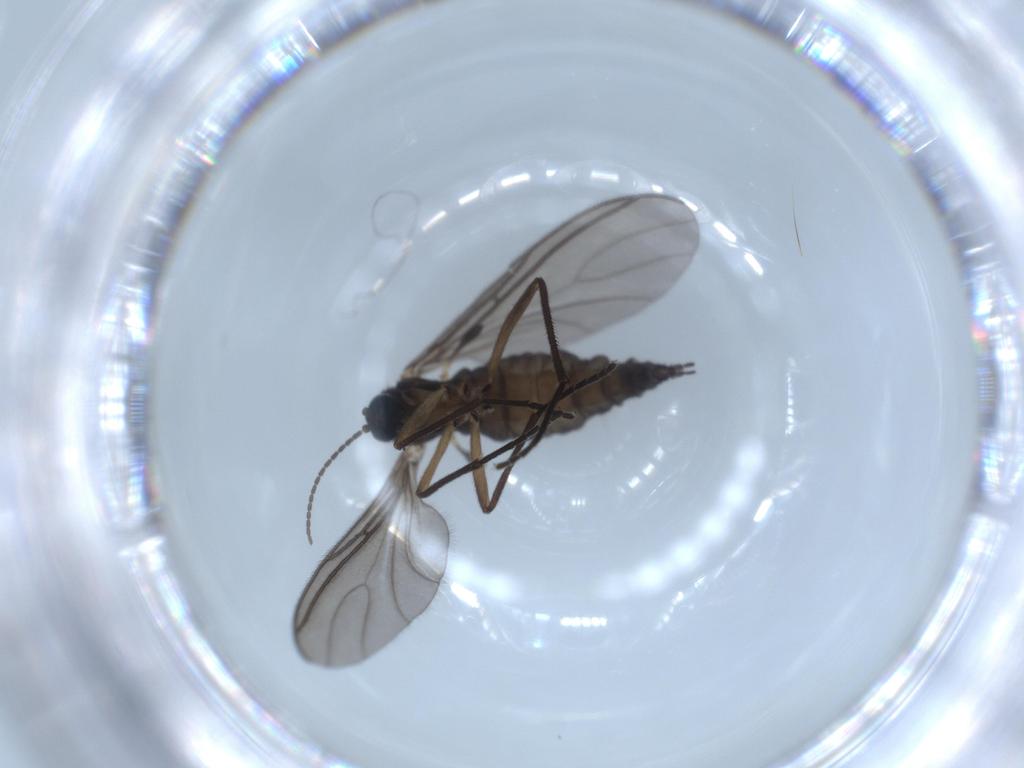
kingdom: Animalia
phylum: Arthropoda
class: Insecta
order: Diptera
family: Sciaridae
